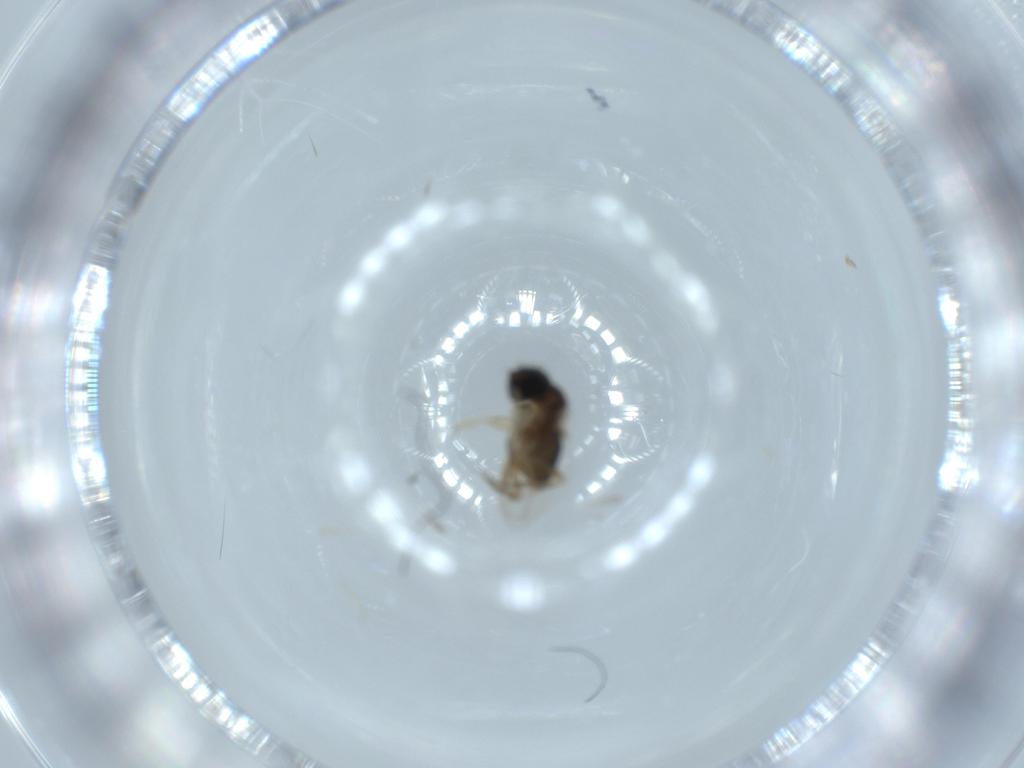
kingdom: Animalia
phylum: Arthropoda
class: Insecta
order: Diptera
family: Phoridae
